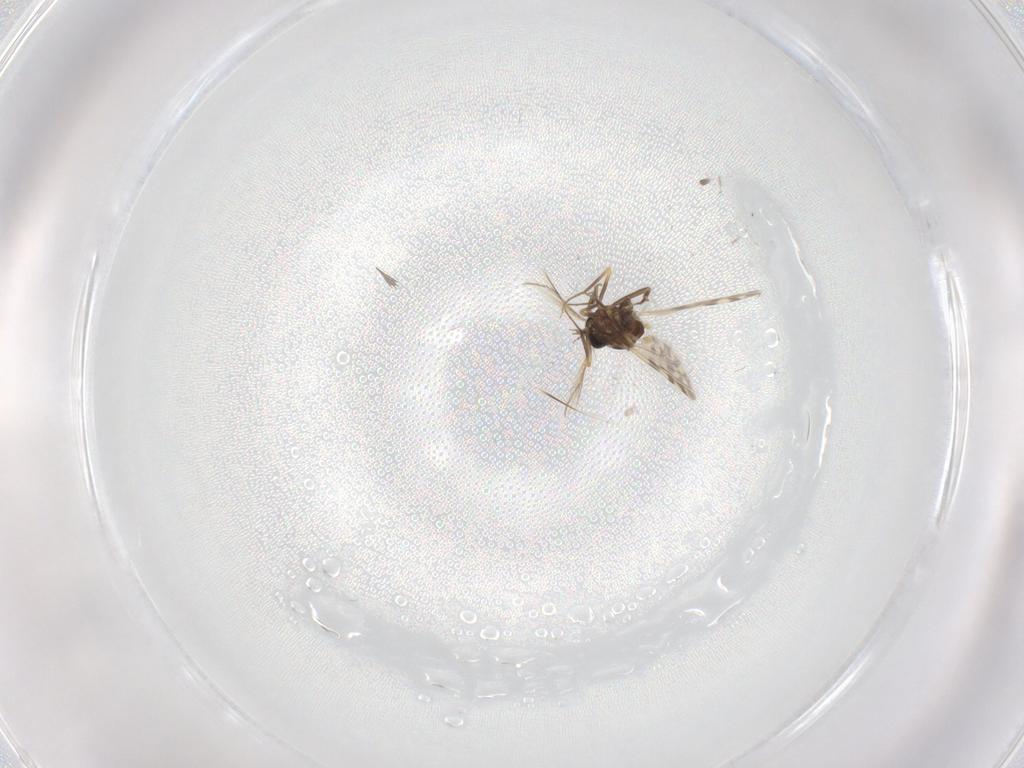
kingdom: Animalia
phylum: Arthropoda
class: Insecta
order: Diptera
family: Ceratopogonidae
